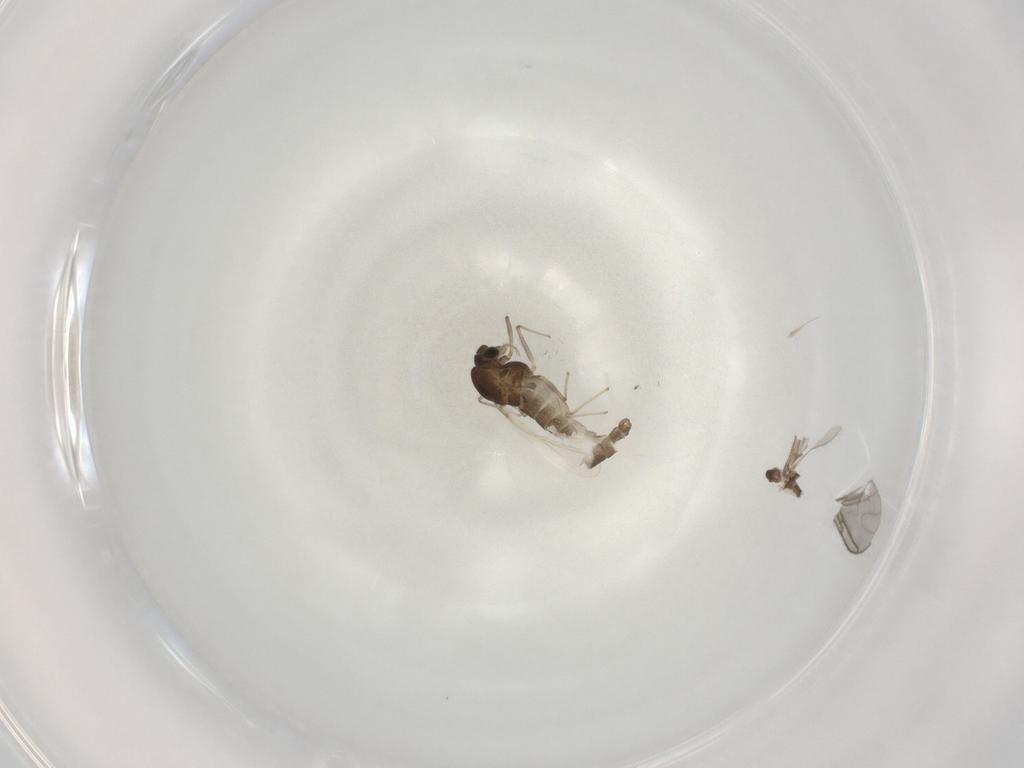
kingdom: Animalia
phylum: Arthropoda
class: Insecta
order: Diptera
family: Chironomidae
